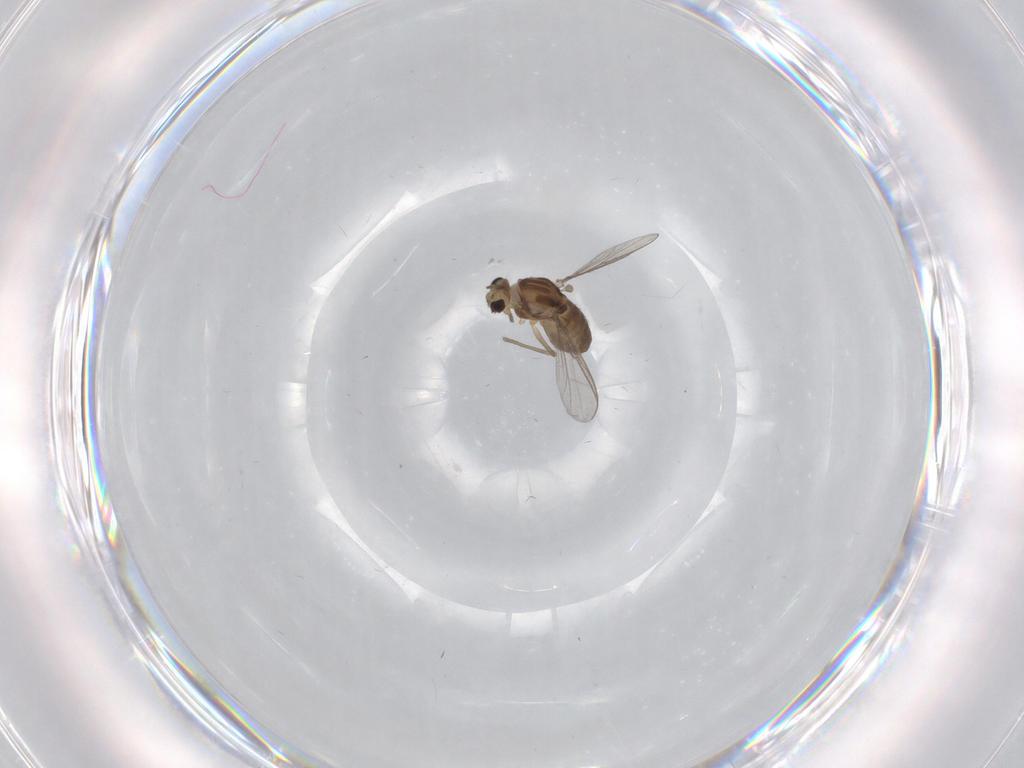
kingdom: Animalia
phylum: Arthropoda
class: Insecta
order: Diptera
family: Chironomidae
